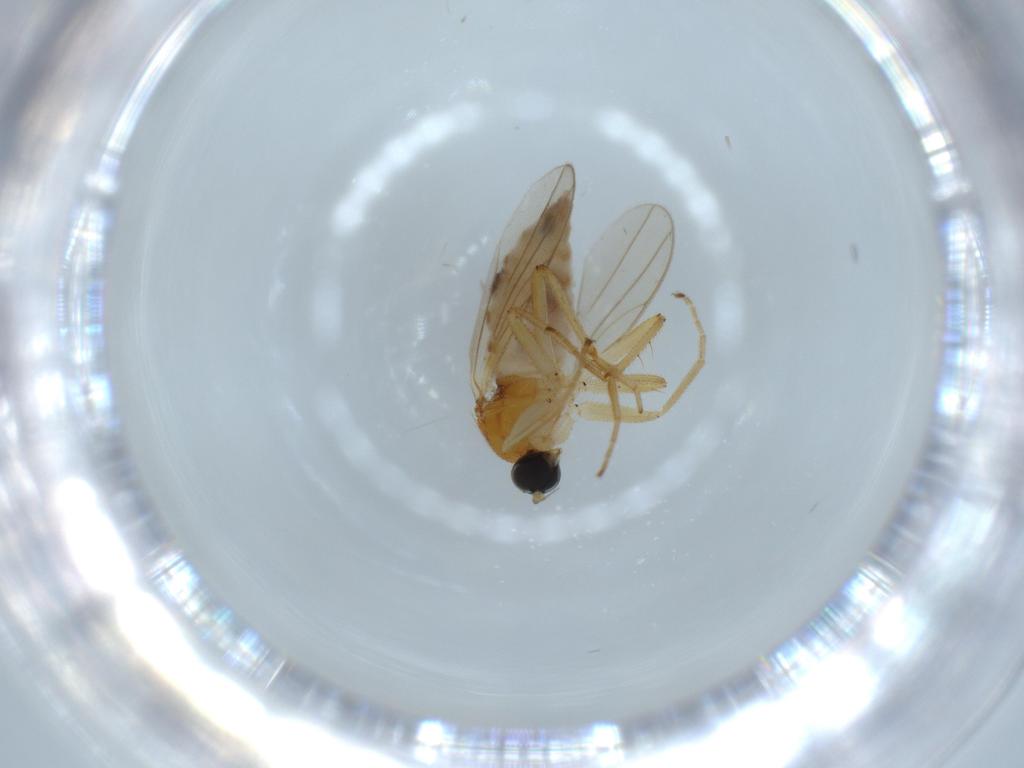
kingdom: Animalia
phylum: Arthropoda
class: Insecta
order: Diptera
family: Hybotidae
